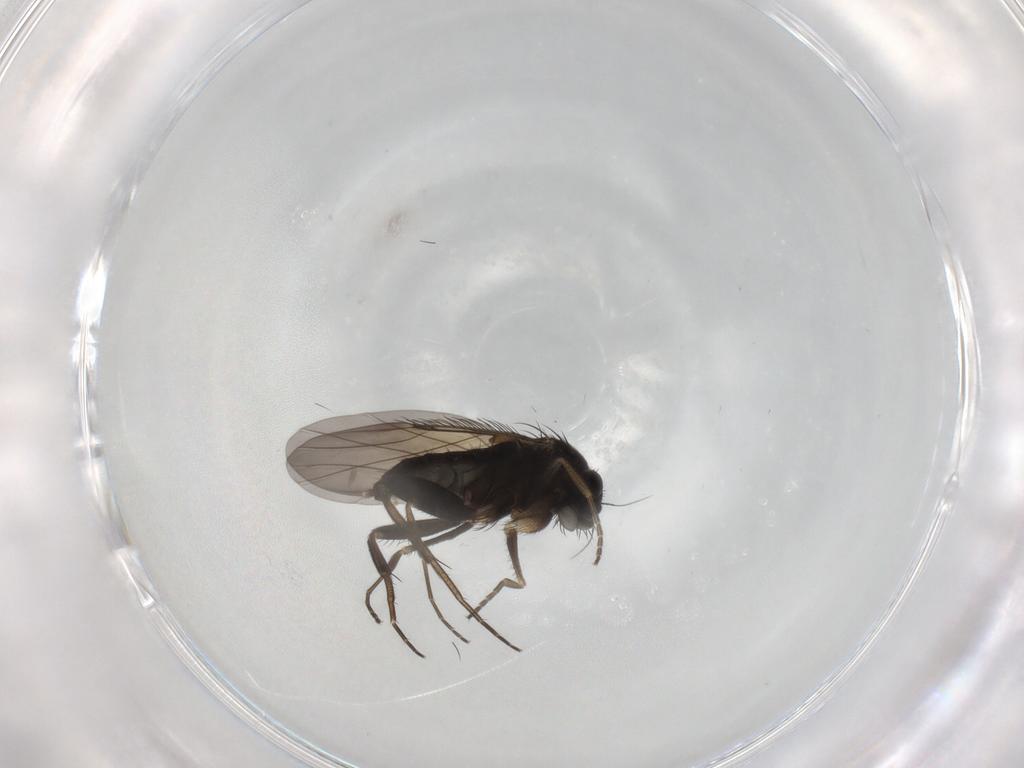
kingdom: Animalia
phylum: Arthropoda
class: Insecta
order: Diptera
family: Phoridae
